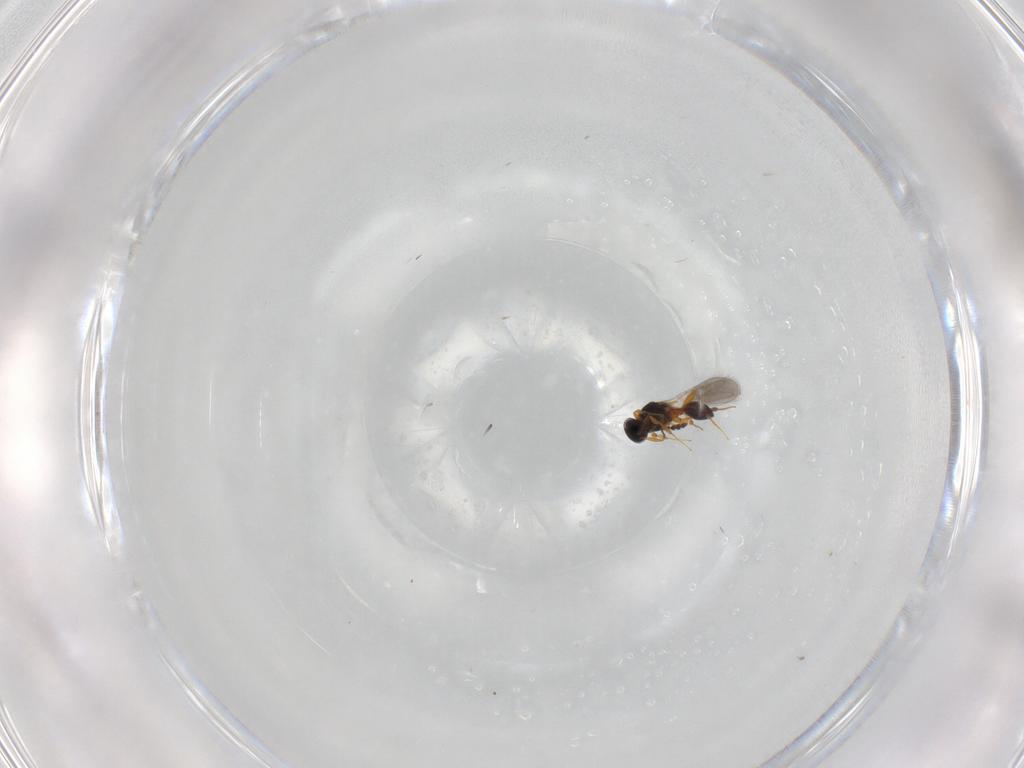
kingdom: Animalia
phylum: Arthropoda
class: Insecta
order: Hymenoptera
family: Platygastridae
